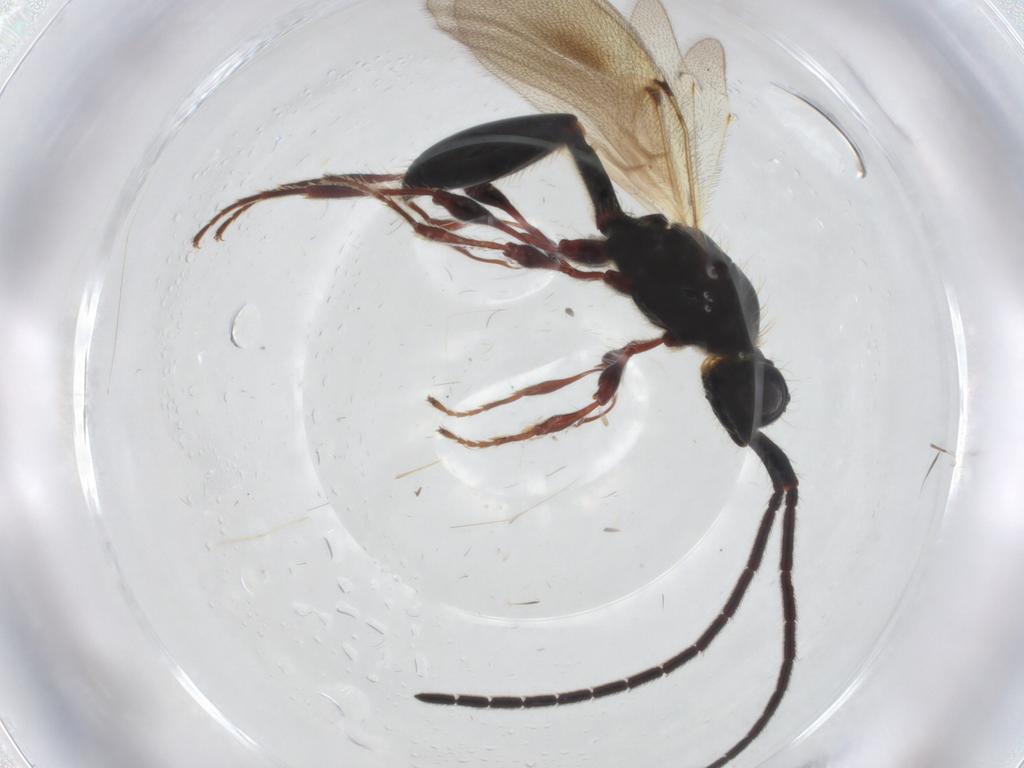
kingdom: Animalia
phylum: Arthropoda
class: Insecta
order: Hymenoptera
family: Diapriidae
